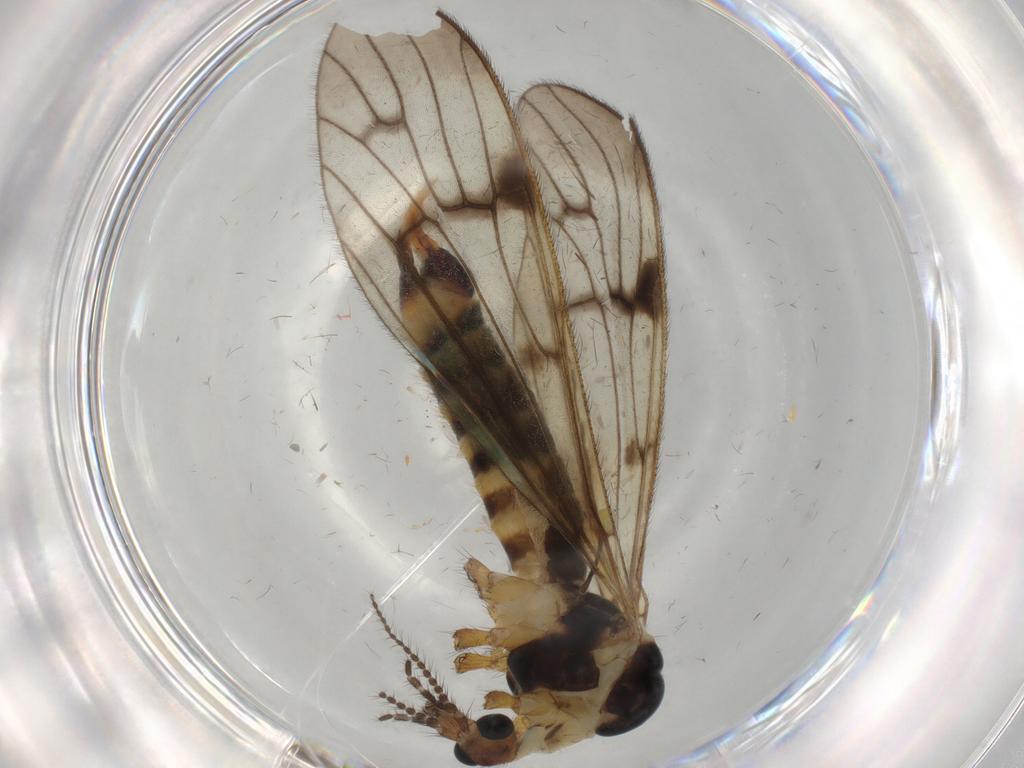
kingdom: Animalia
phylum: Arthropoda
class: Insecta
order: Diptera
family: Limoniidae
